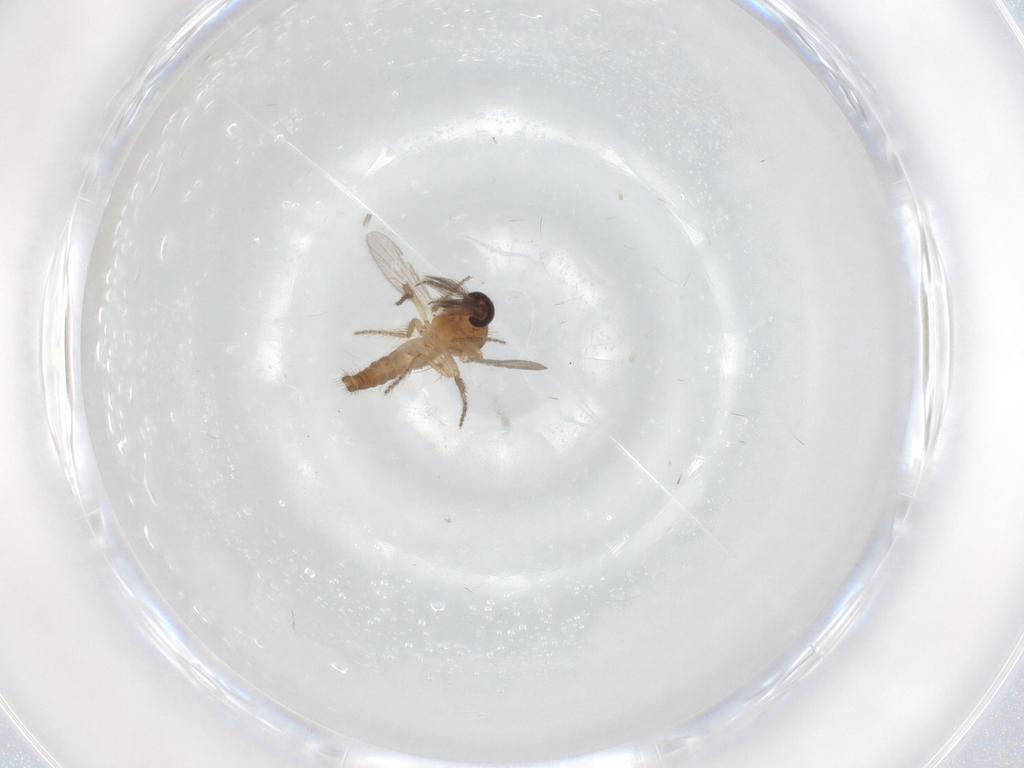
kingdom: Animalia
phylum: Arthropoda
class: Insecta
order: Diptera
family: Ceratopogonidae
